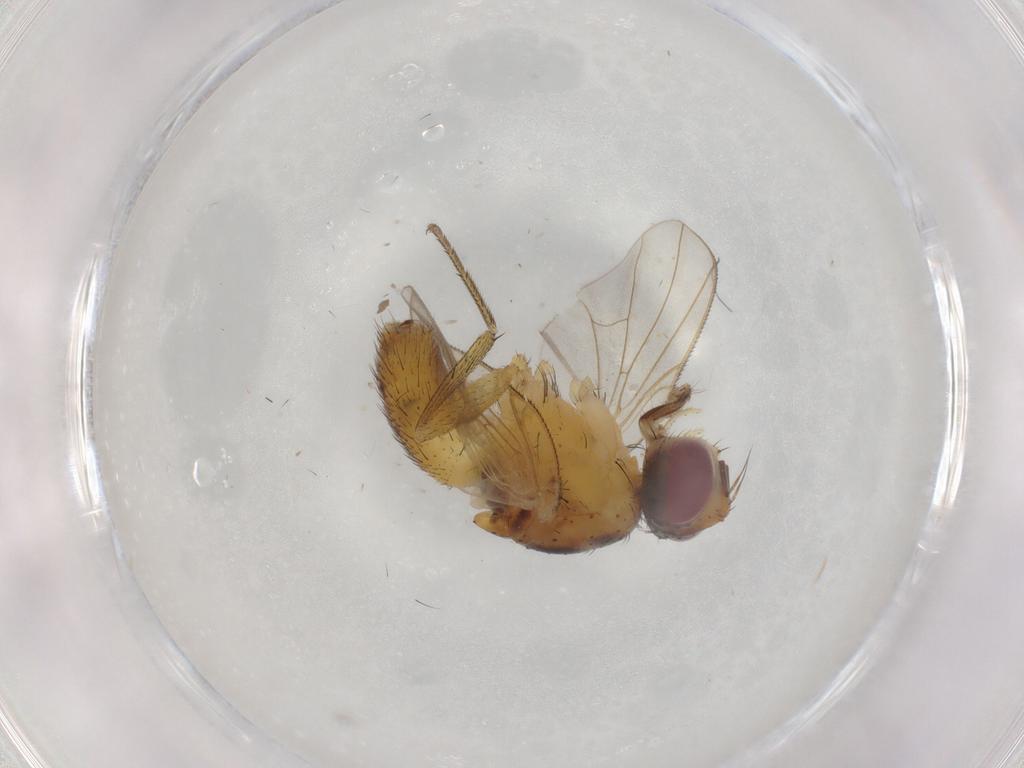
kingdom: Animalia
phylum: Arthropoda
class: Insecta
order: Diptera
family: Muscidae
